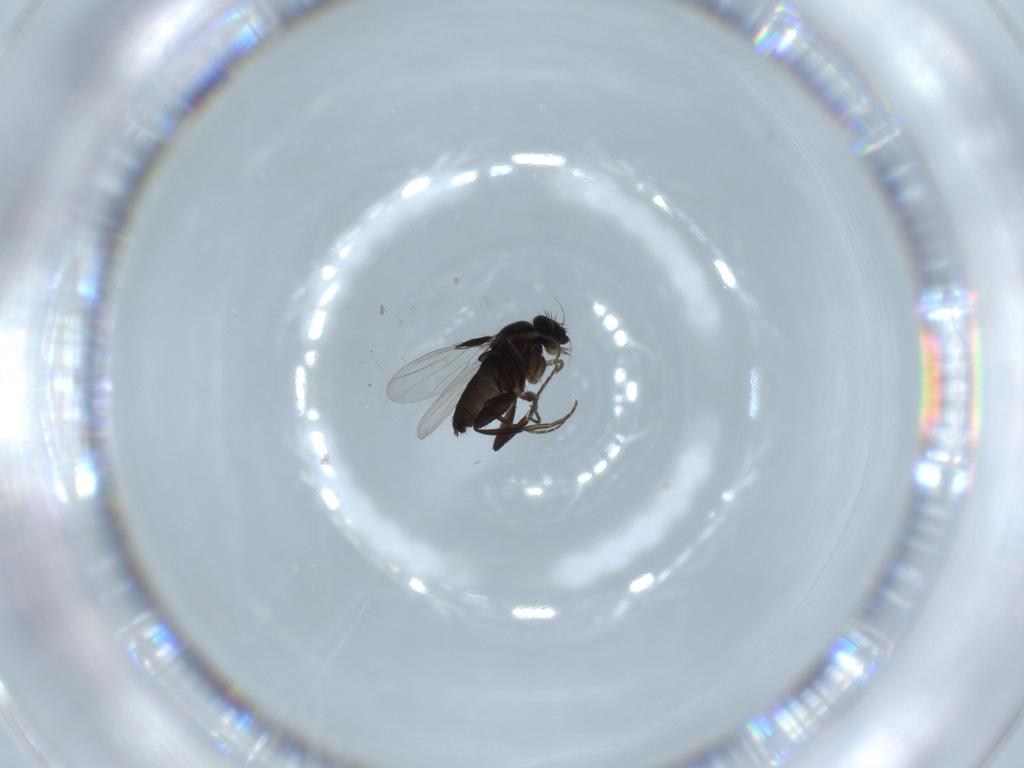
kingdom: Animalia
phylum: Arthropoda
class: Insecta
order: Diptera
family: Phoridae
